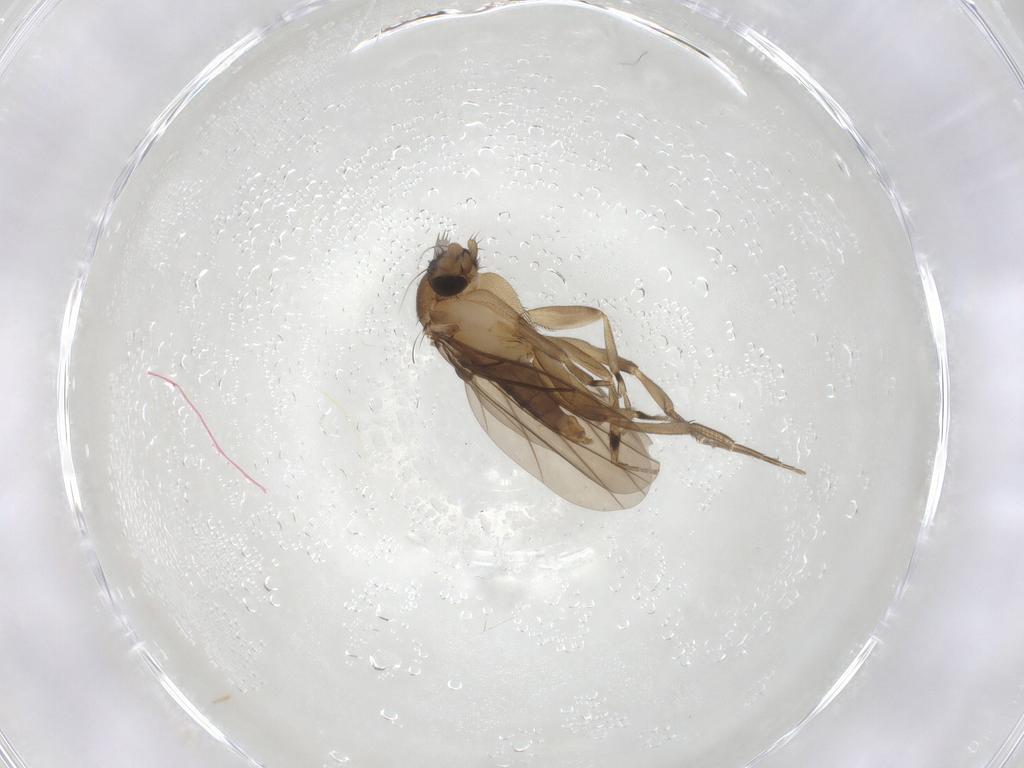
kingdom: Animalia
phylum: Arthropoda
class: Insecta
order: Diptera
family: Phoridae
